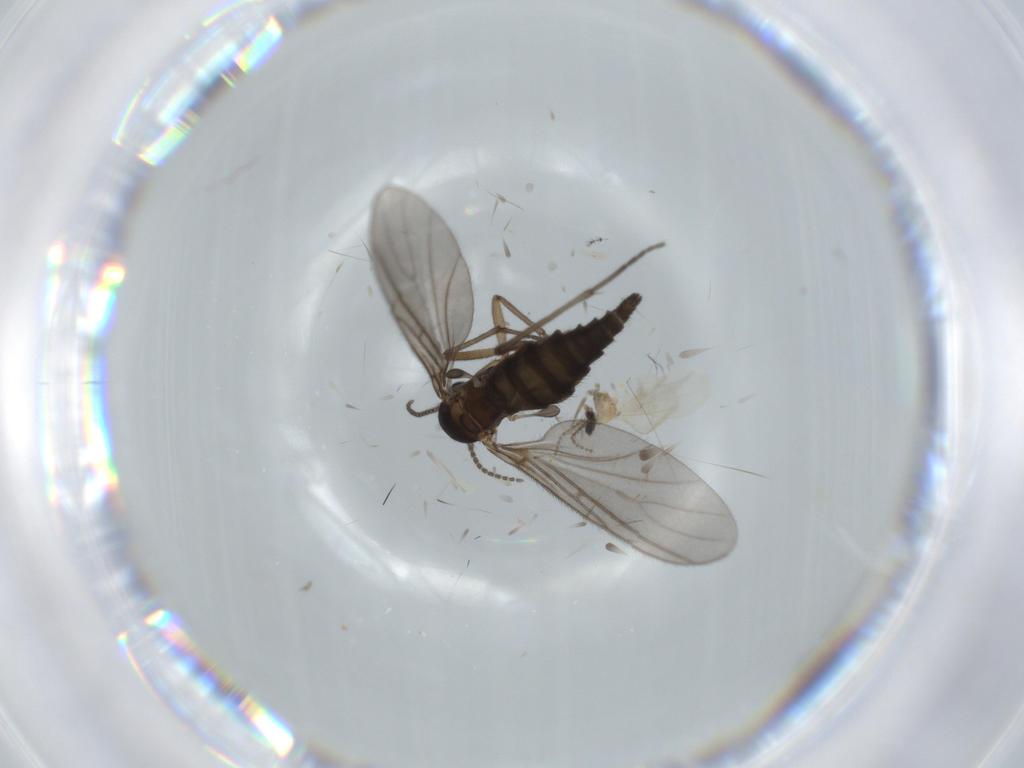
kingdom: Animalia
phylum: Arthropoda
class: Insecta
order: Diptera
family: Sciaridae
